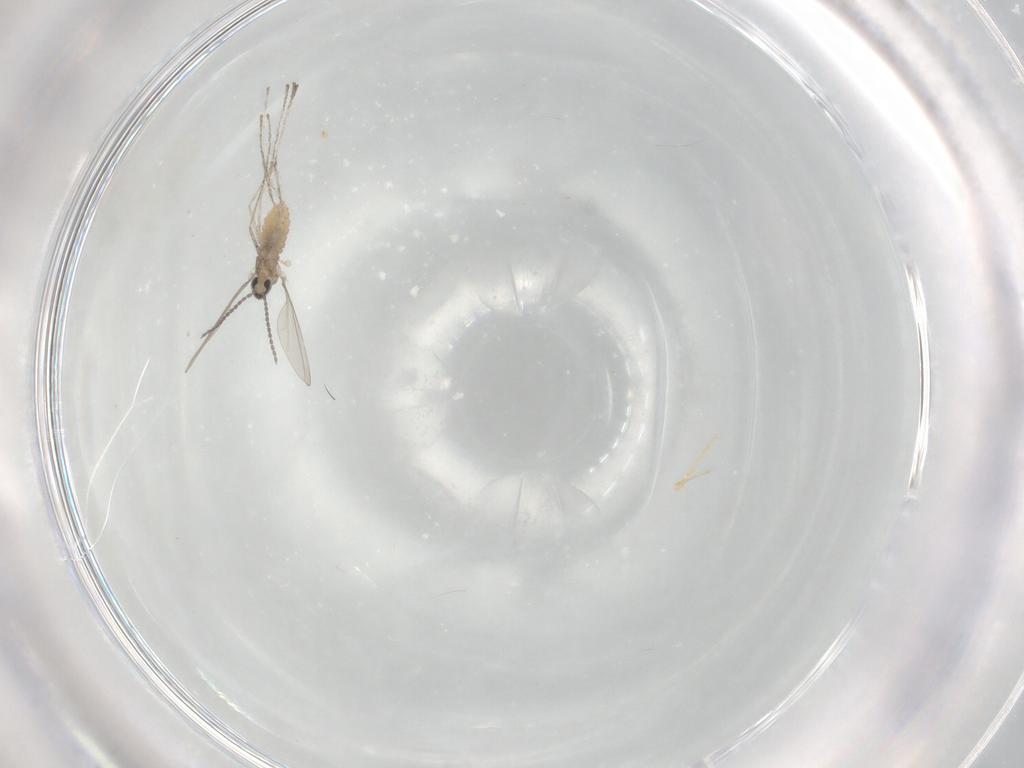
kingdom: Animalia
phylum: Arthropoda
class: Insecta
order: Diptera
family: Cecidomyiidae
